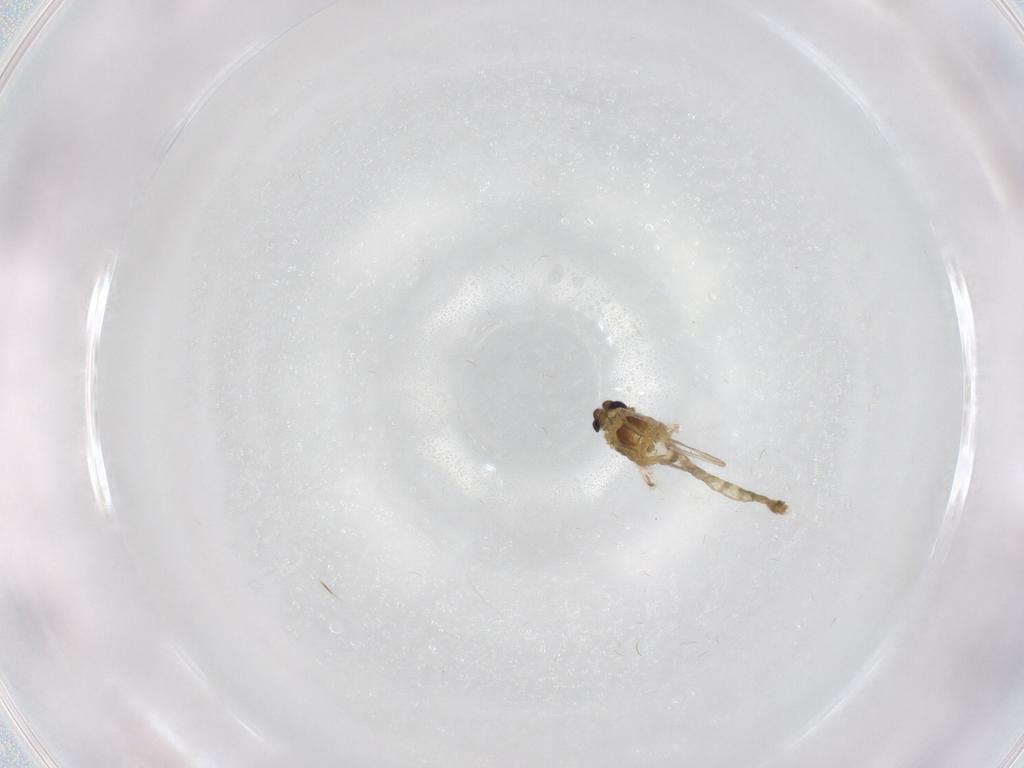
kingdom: Animalia
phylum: Arthropoda
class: Insecta
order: Diptera
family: Chironomidae
